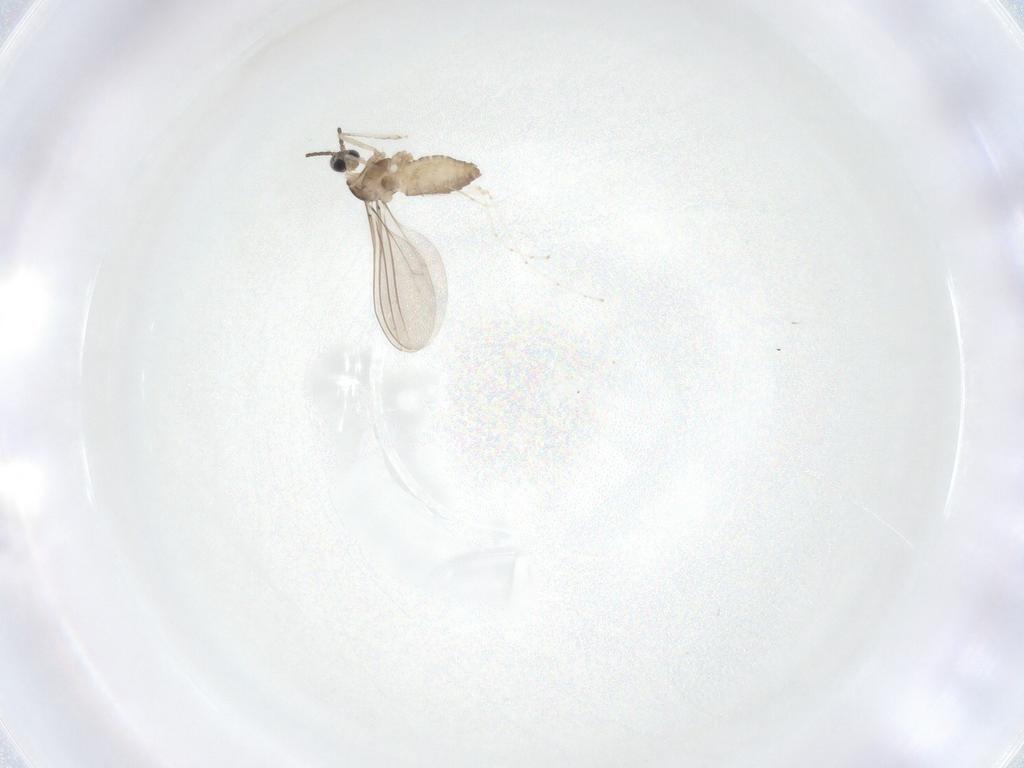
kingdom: Animalia
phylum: Arthropoda
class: Insecta
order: Diptera
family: Cecidomyiidae
